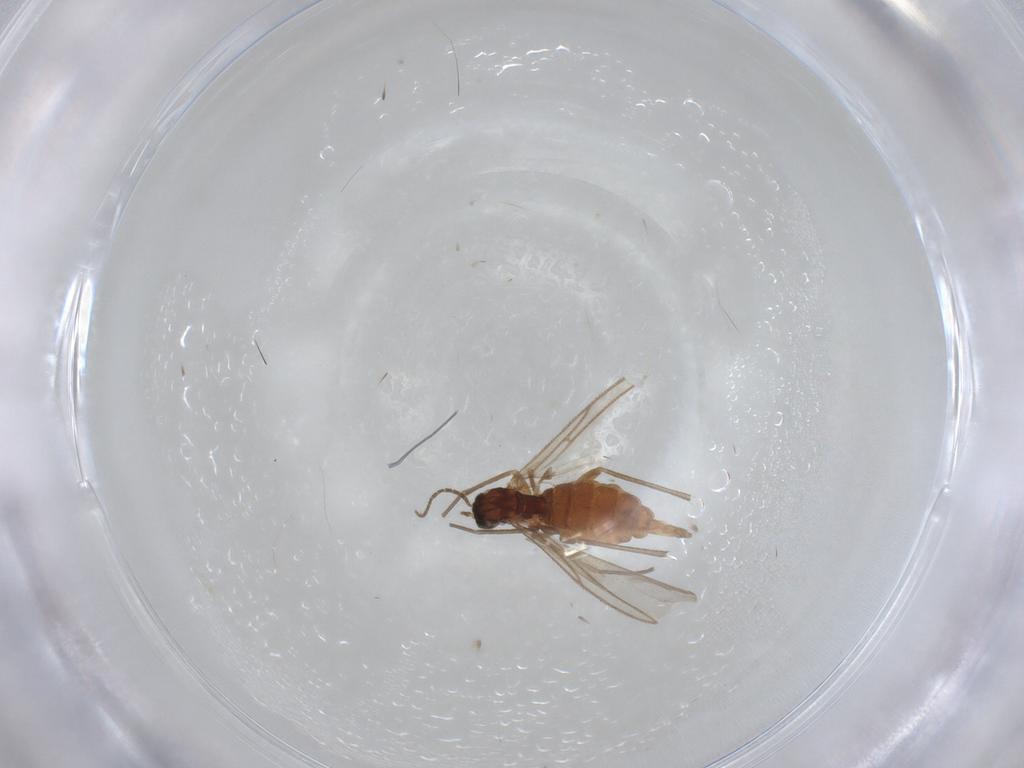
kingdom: Animalia
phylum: Arthropoda
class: Insecta
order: Diptera
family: Sciaridae
